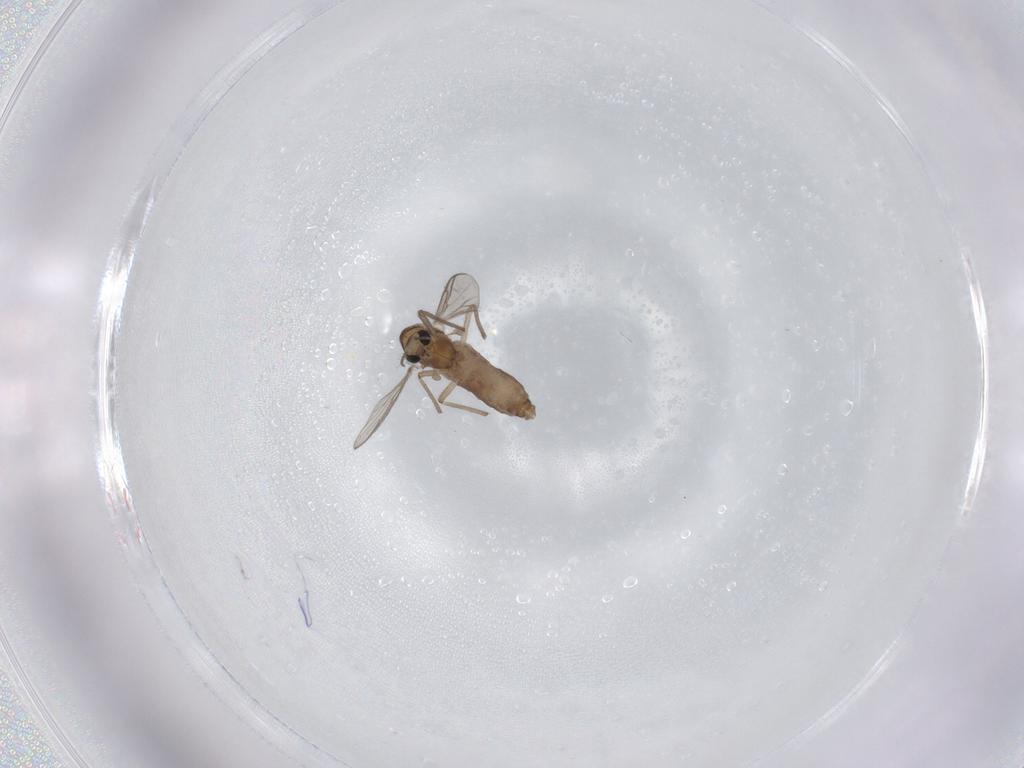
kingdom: Animalia
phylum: Arthropoda
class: Insecta
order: Diptera
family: Chironomidae
